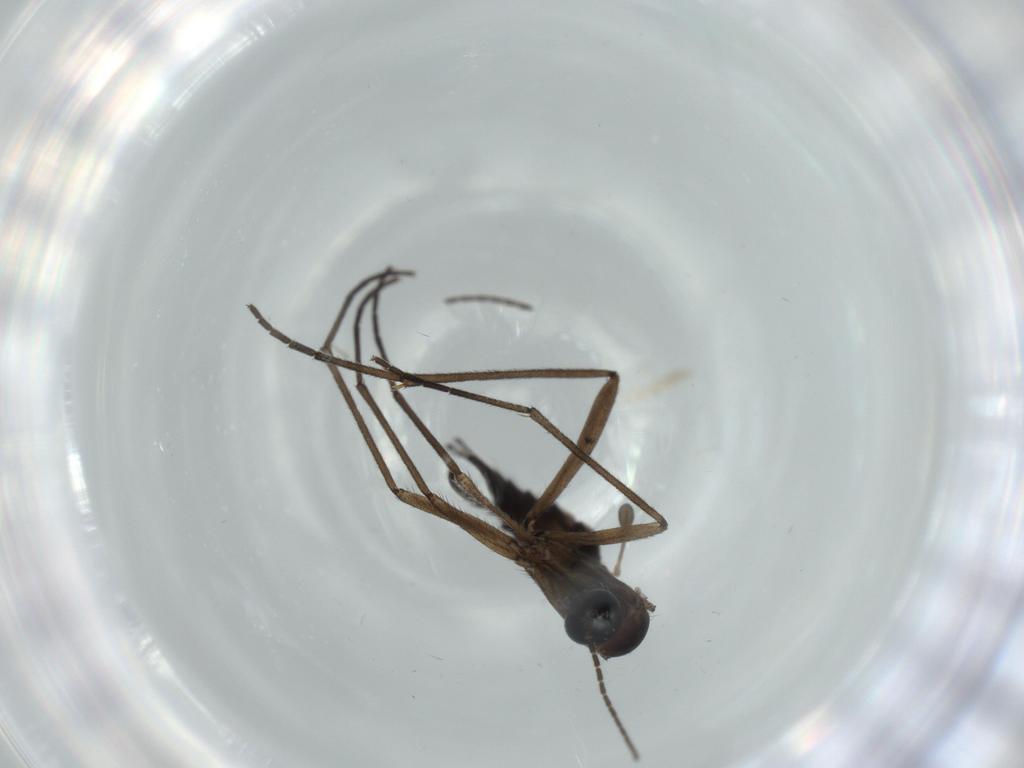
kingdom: Animalia
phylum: Arthropoda
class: Insecta
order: Diptera
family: Sciaridae
